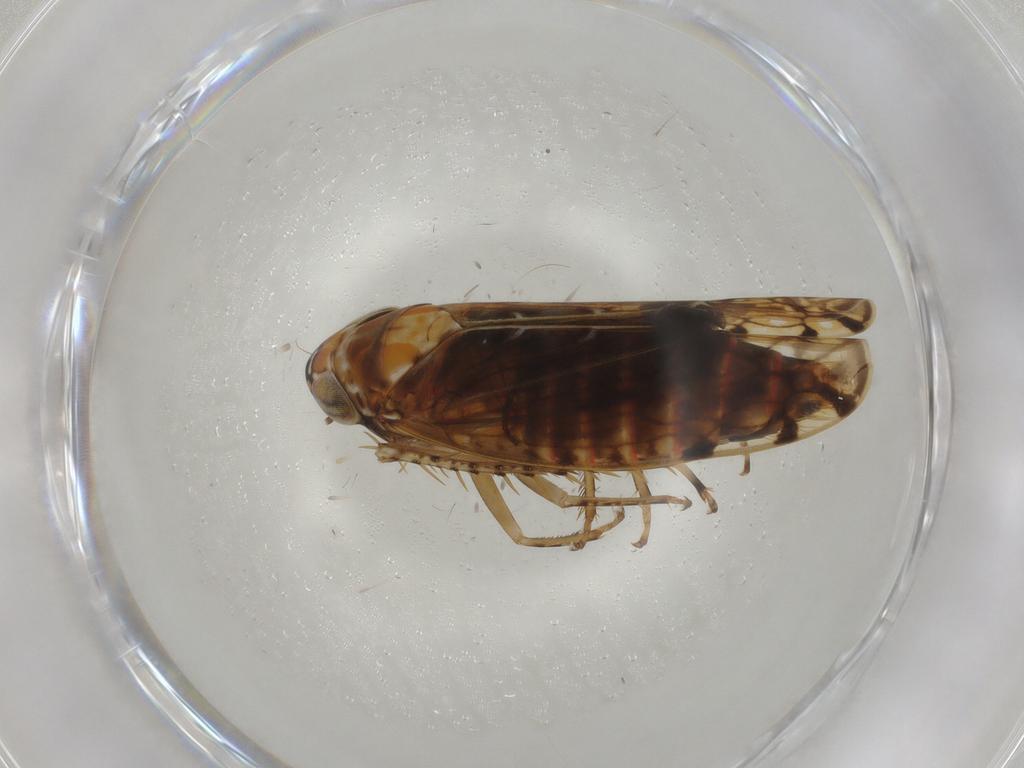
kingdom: Animalia
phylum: Arthropoda
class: Insecta
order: Hemiptera
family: Cicadellidae
